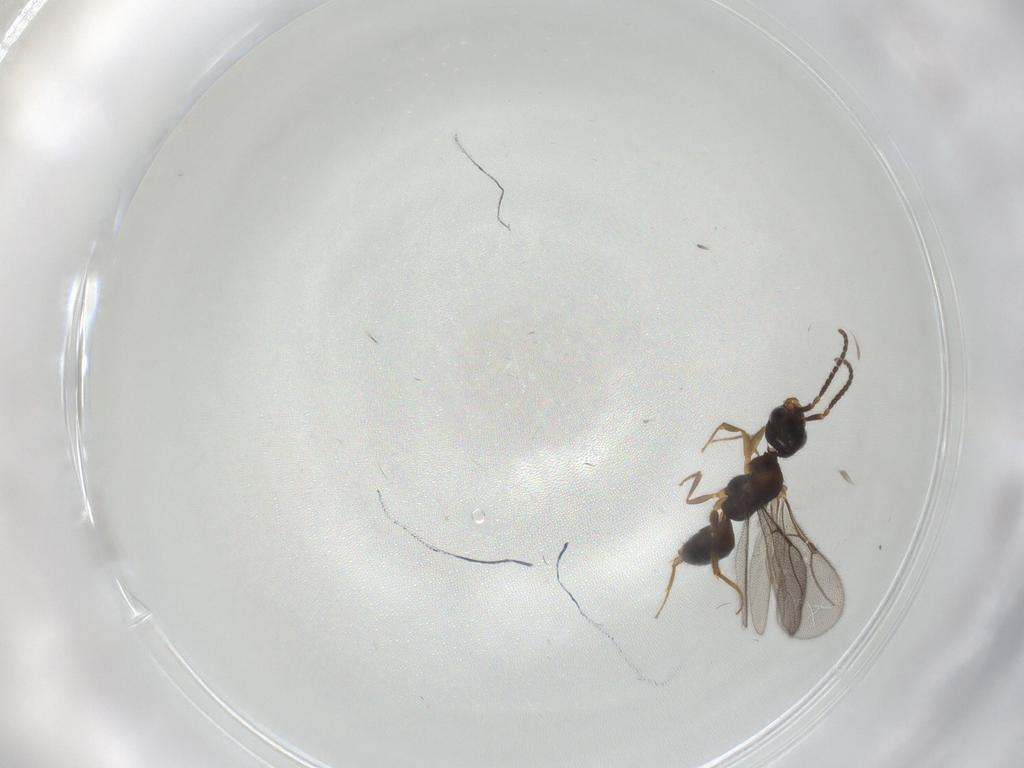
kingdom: Animalia
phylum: Arthropoda
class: Insecta
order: Hymenoptera
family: Bethylidae
